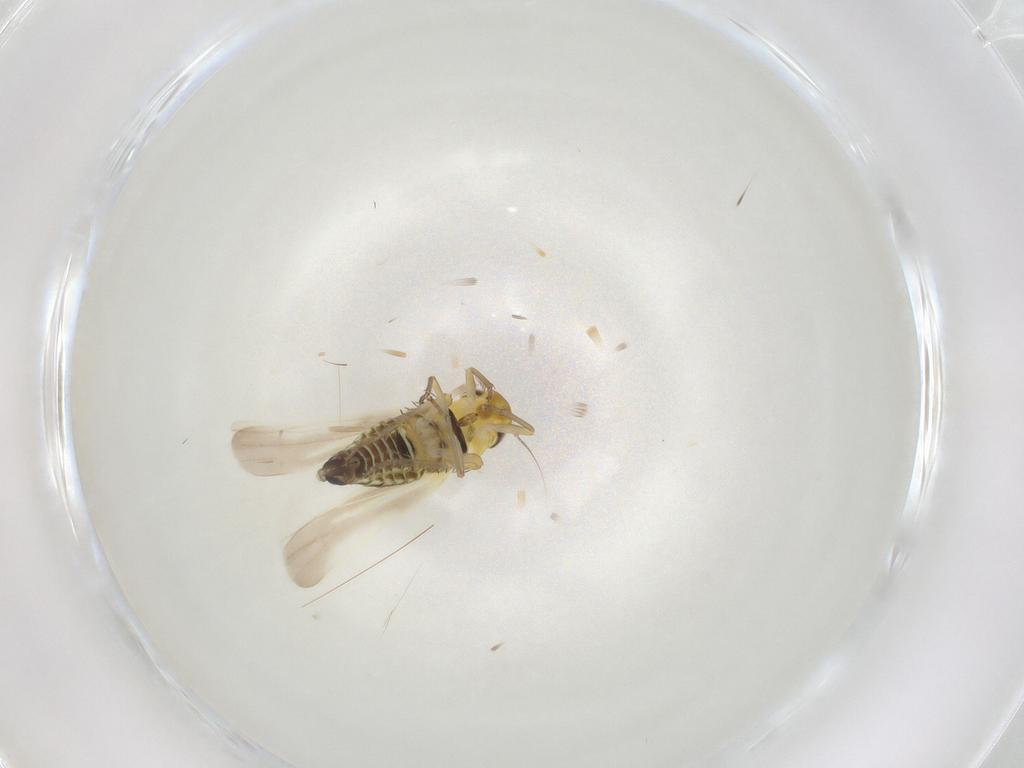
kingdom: Animalia
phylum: Arthropoda
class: Insecta
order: Hemiptera
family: Cicadellidae
